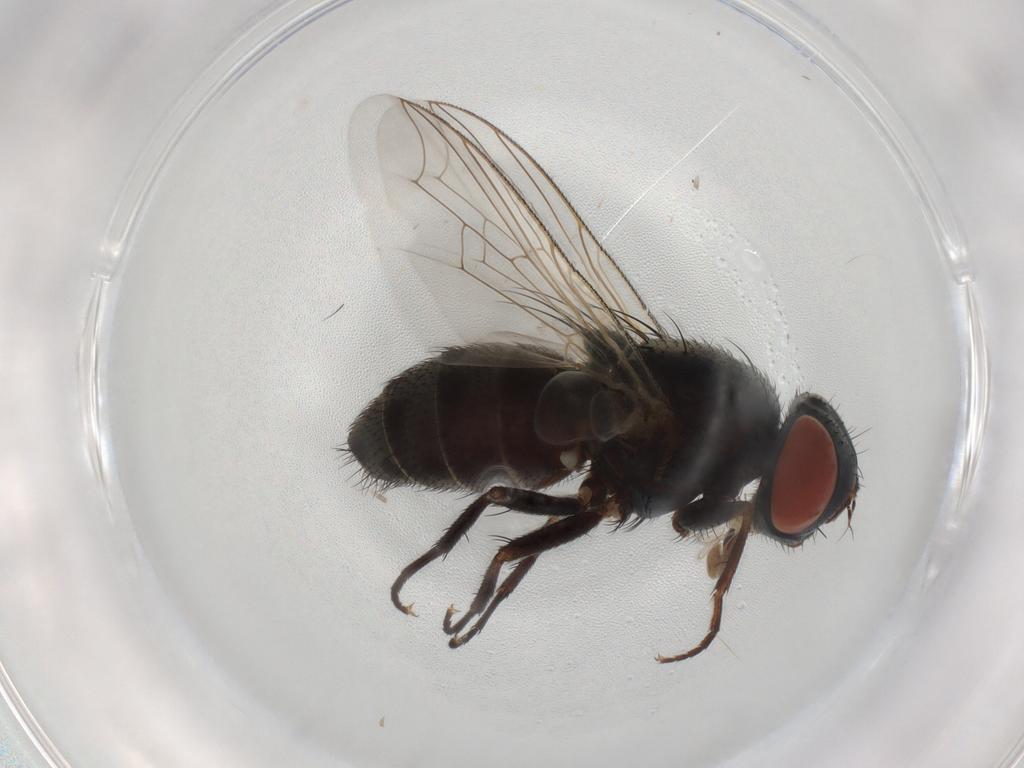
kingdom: Animalia
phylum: Arthropoda
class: Insecta
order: Diptera
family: Sarcophagidae
